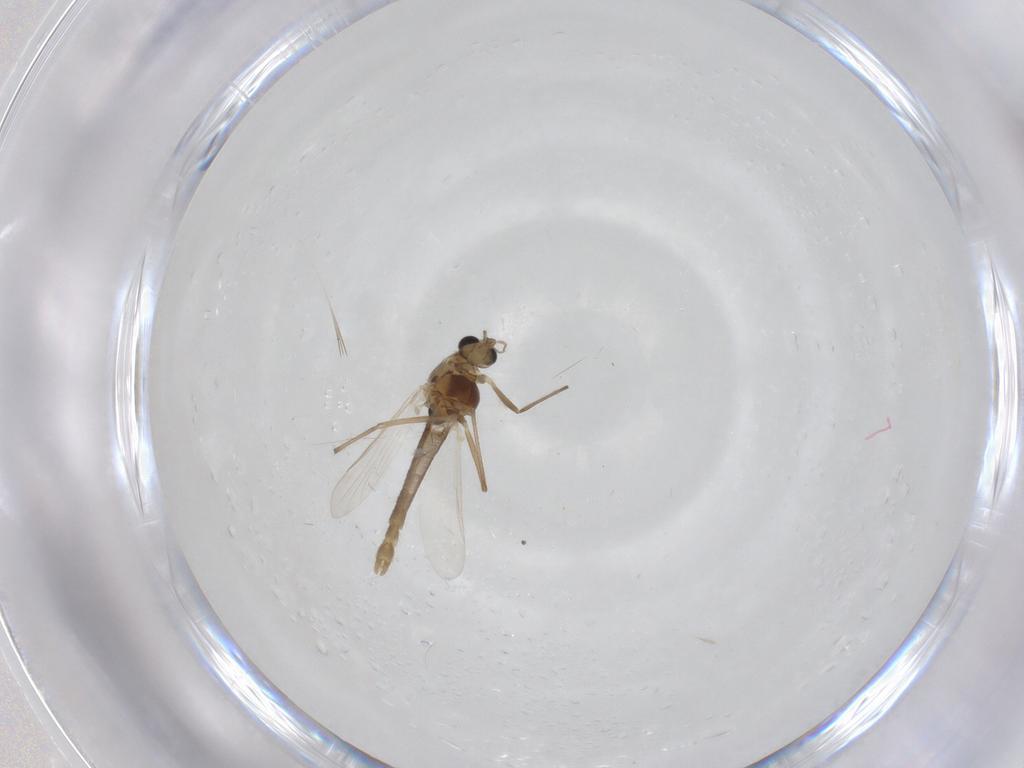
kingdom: Animalia
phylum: Arthropoda
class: Insecta
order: Diptera
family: Chironomidae
